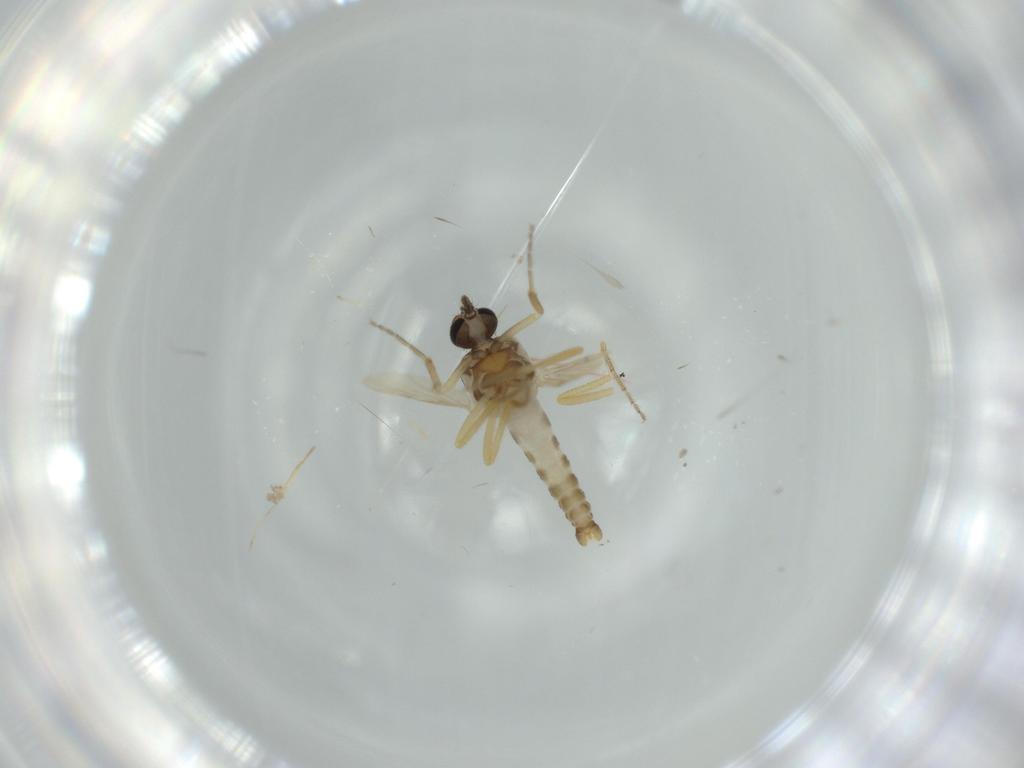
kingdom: Animalia
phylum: Arthropoda
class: Insecta
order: Diptera
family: Ceratopogonidae
